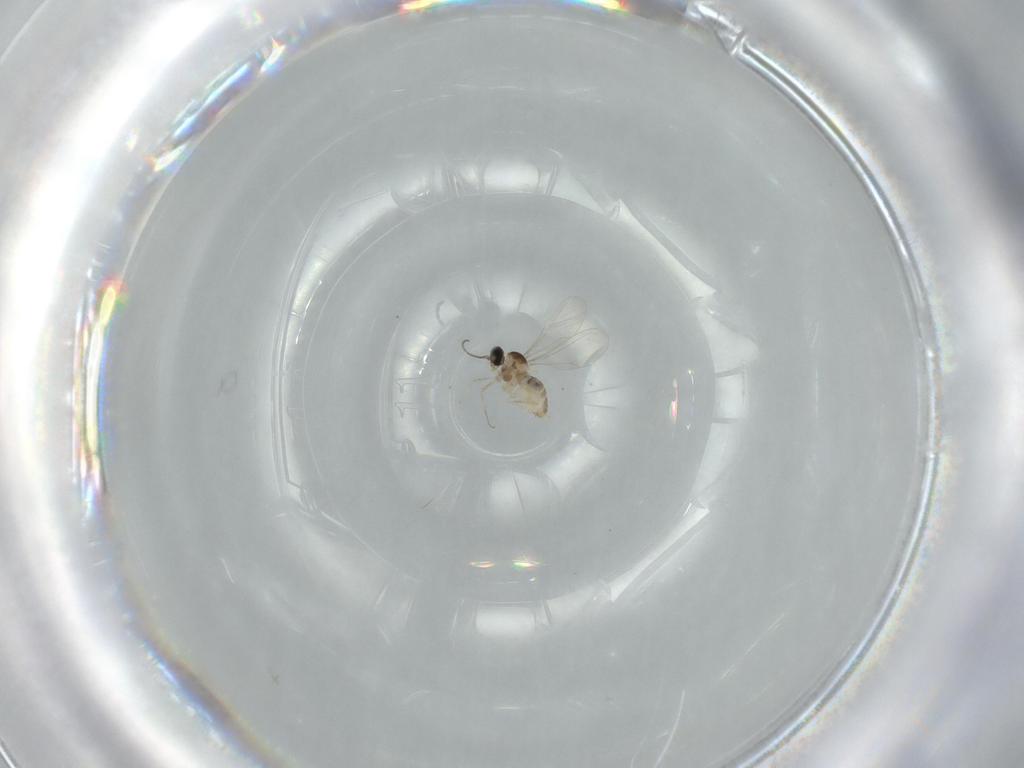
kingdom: Animalia
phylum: Arthropoda
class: Insecta
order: Diptera
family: Cecidomyiidae
